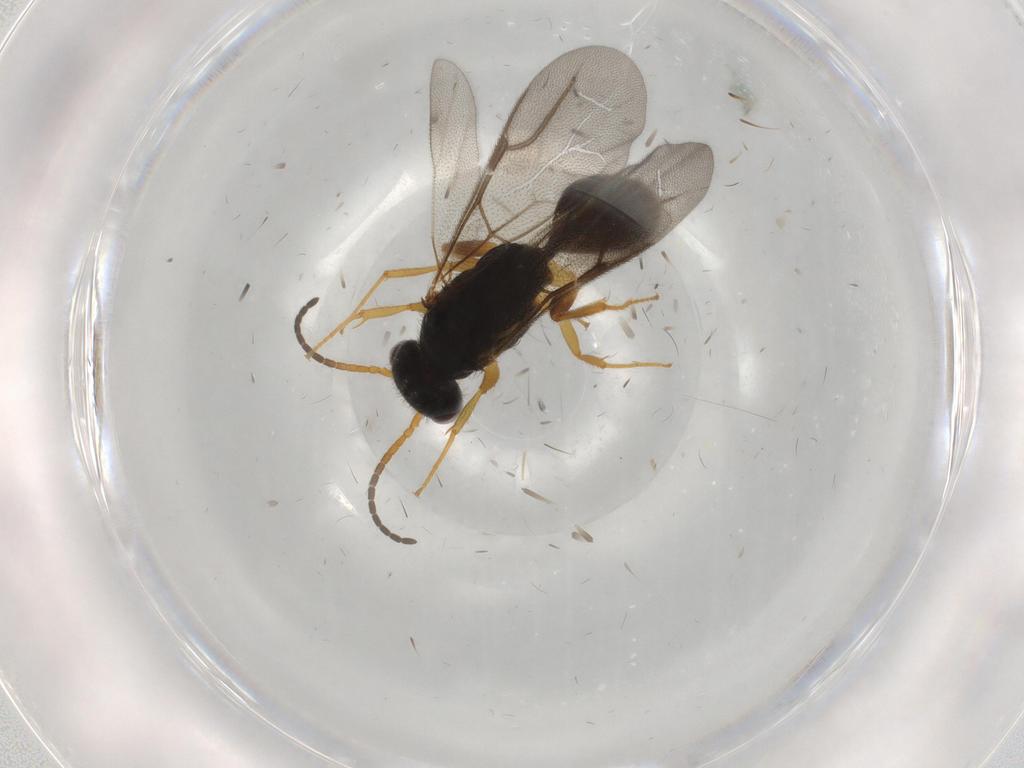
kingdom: Animalia
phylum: Arthropoda
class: Insecta
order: Hymenoptera
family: Bethylidae
